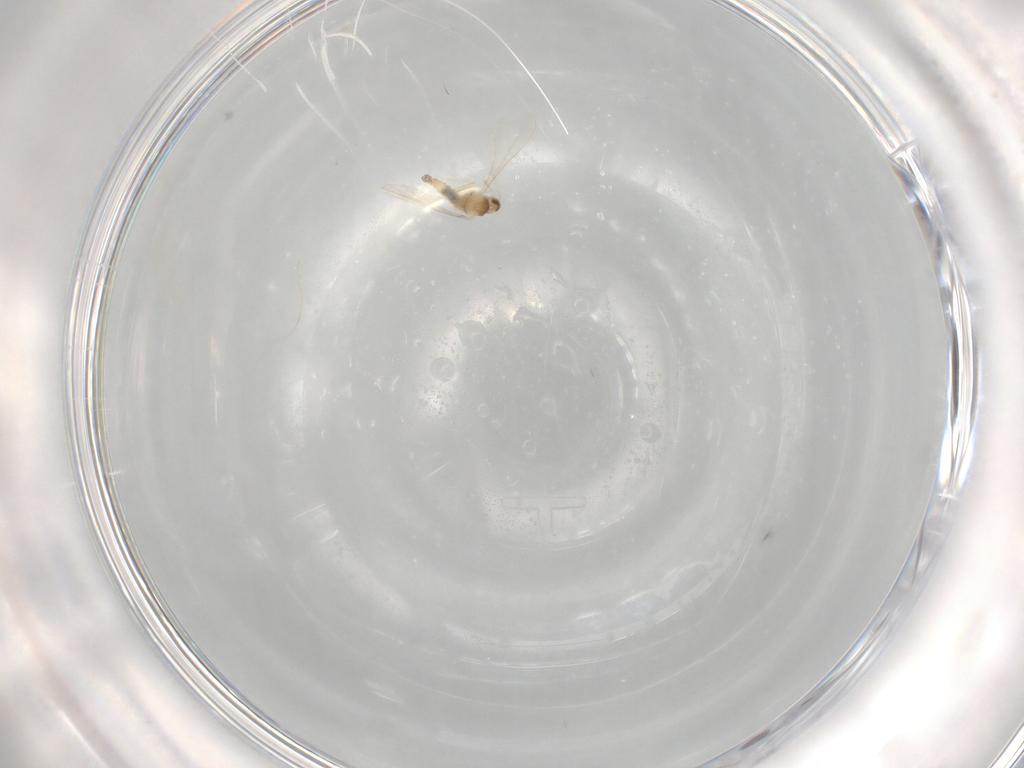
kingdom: Animalia
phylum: Arthropoda
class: Insecta
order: Diptera
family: Cecidomyiidae
